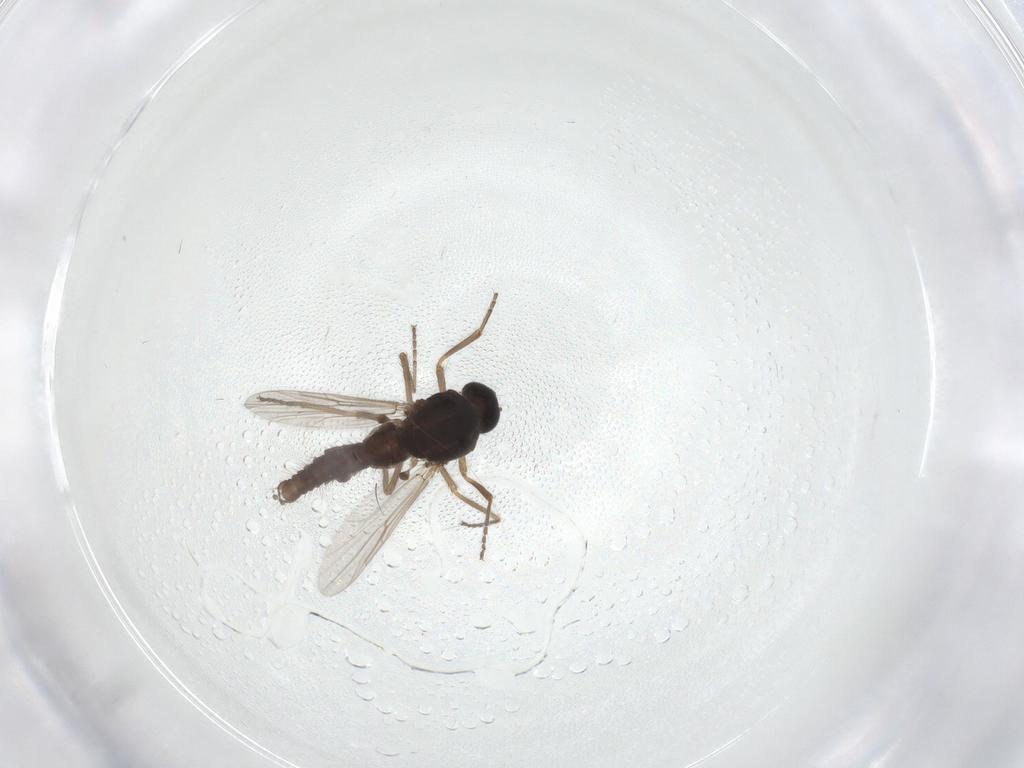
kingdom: Animalia
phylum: Arthropoda
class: Insecta
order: Diptera
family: Ceratopogonidae
